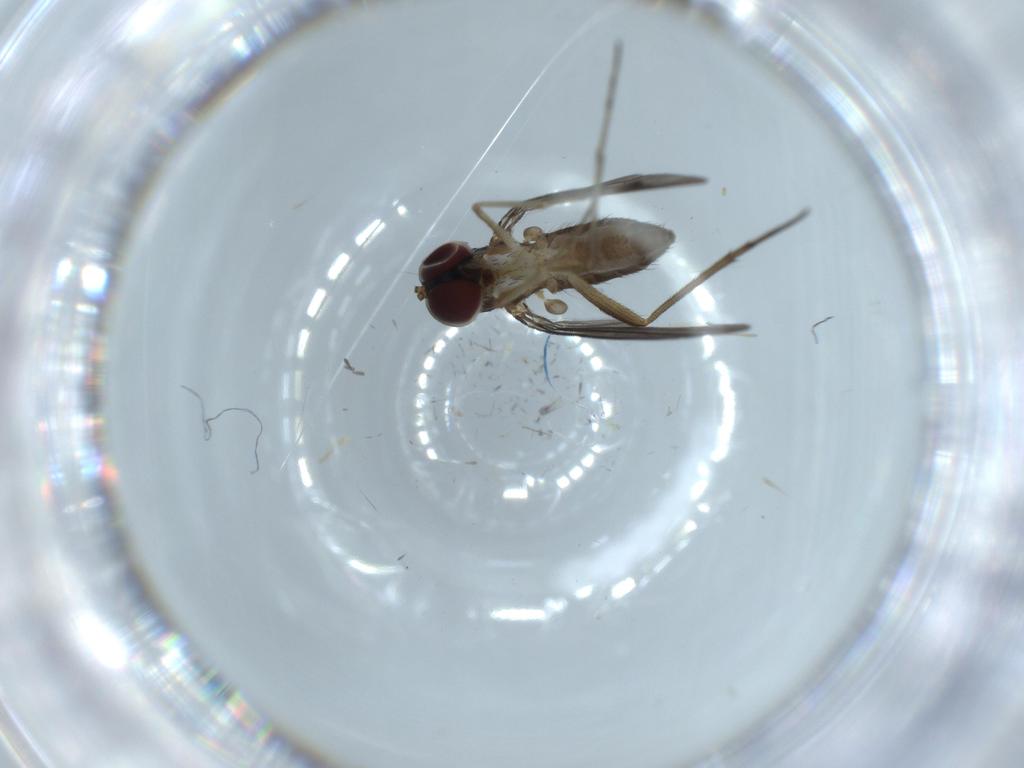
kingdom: Animalia
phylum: Arthropoda
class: Insecta
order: Diptera
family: Dolichopodidae
